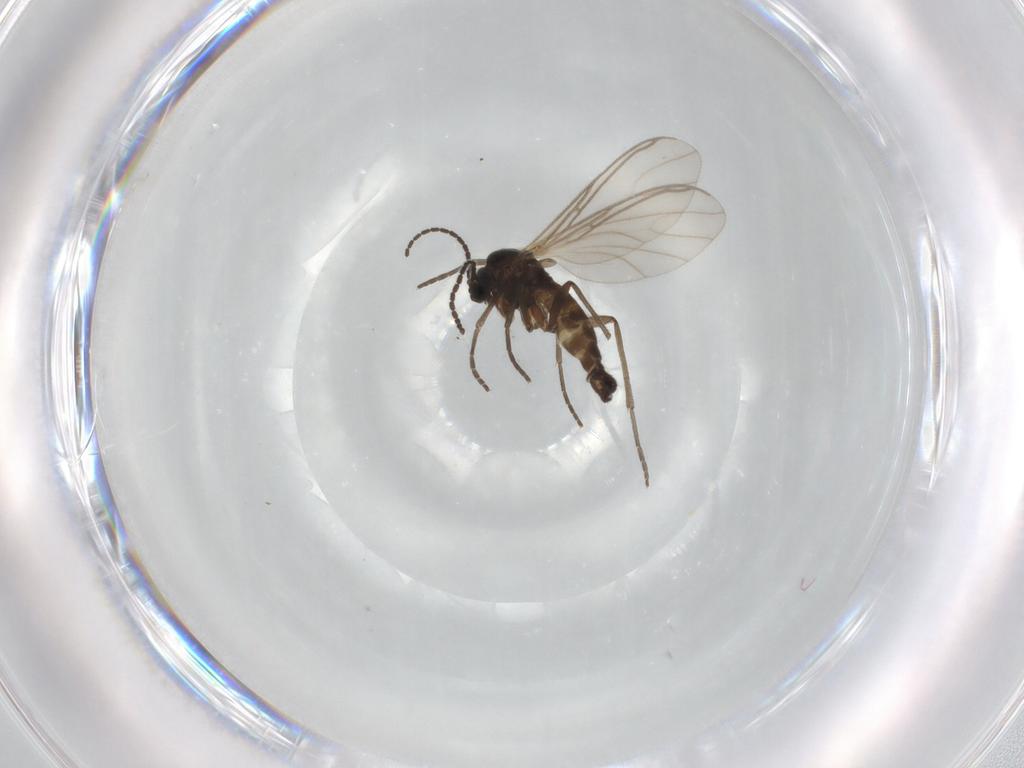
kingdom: Animalia
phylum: Arthropoda
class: Insecta
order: Diptera
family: Sciaridae
